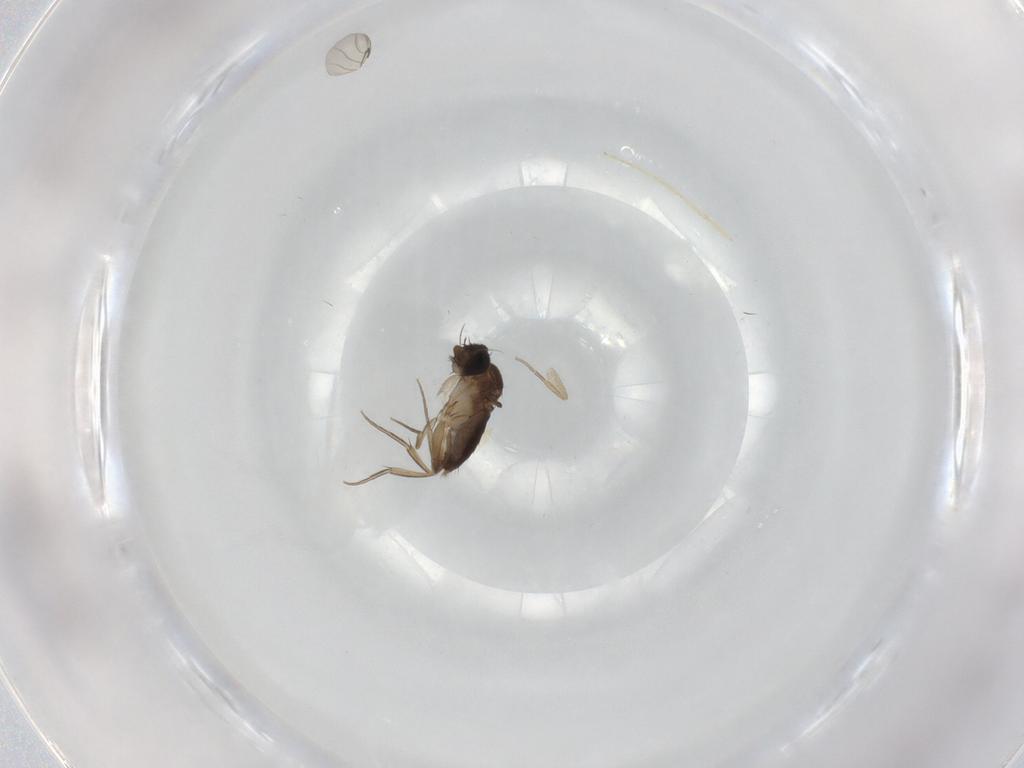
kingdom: Animalia
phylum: Arthropoda
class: Insecta
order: Diptera
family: Phoridae
